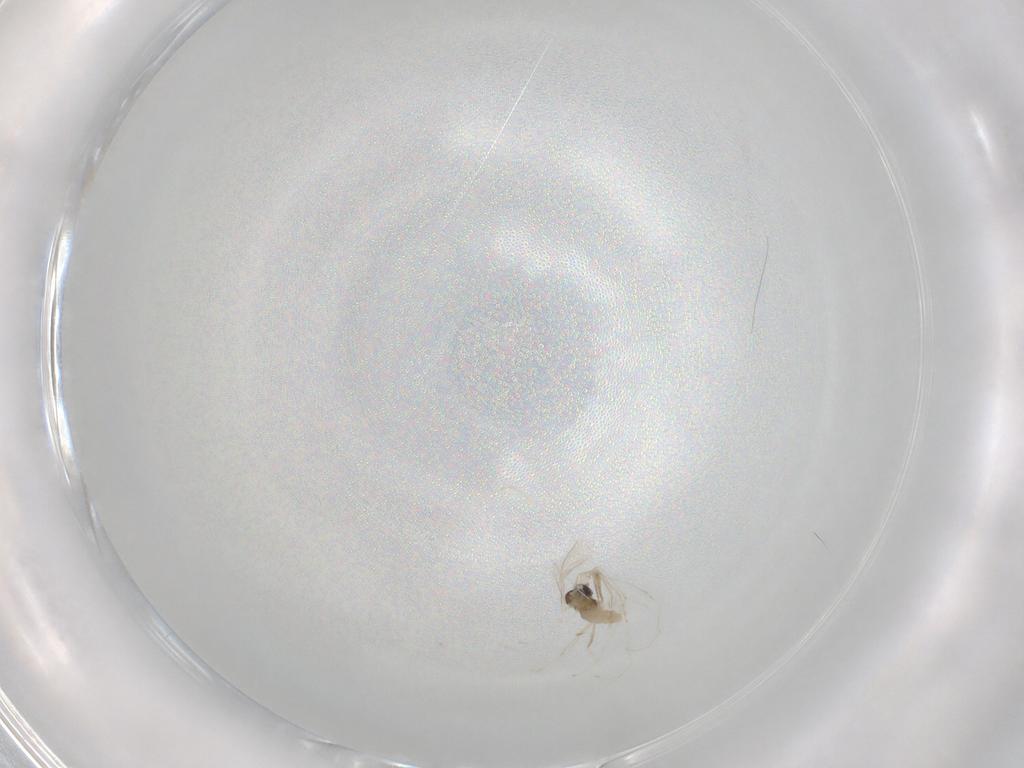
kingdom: Animalia
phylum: Arthropoda
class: Insecta
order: Diptera
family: Cecidomyiidae
